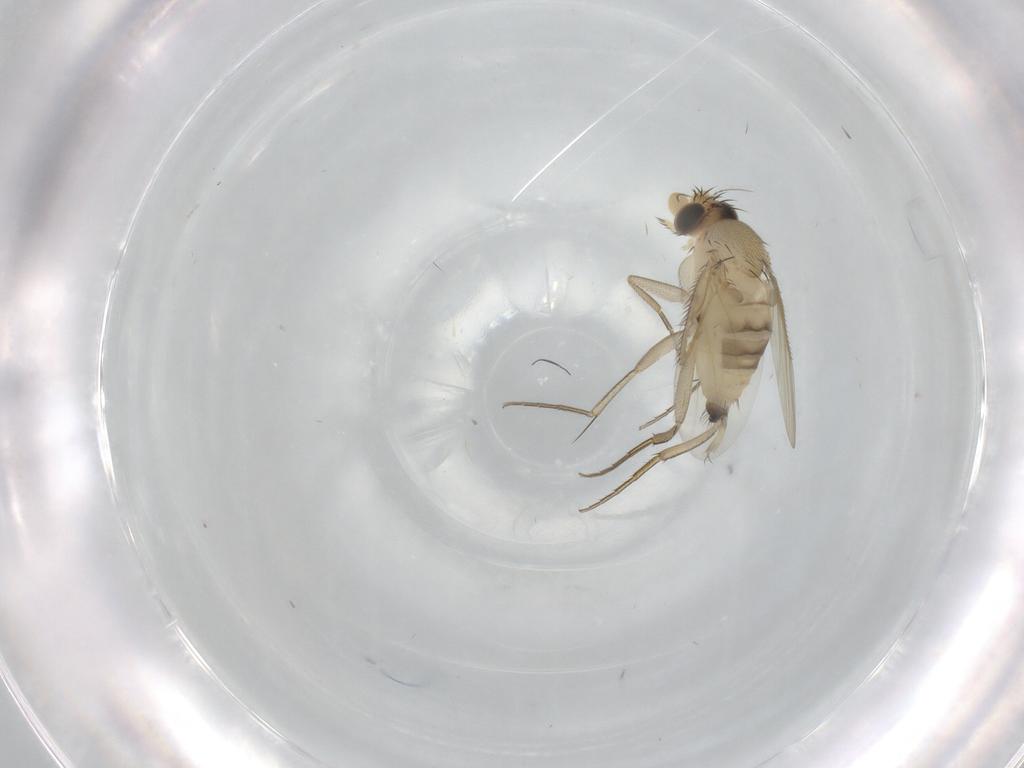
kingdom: Animalia
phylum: Arthropoda
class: Insecta
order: Diptera
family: Phoridae
